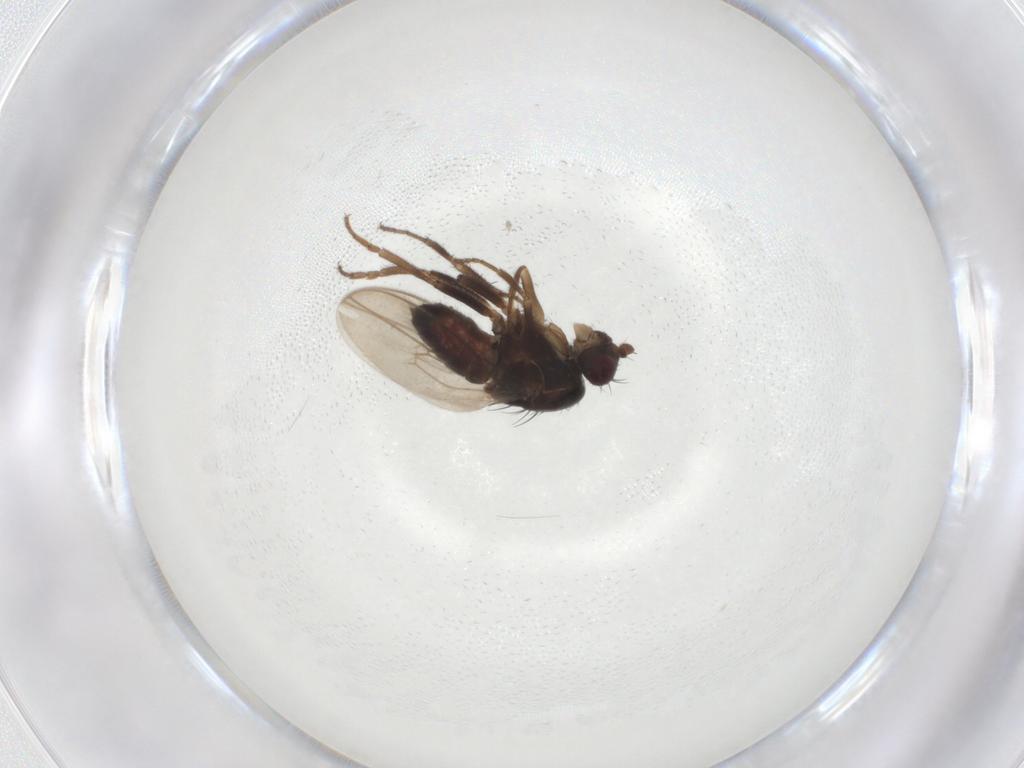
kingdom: Animalia
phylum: Arthropoda
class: Insecta
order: Diptera
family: Sphaeroceridae
